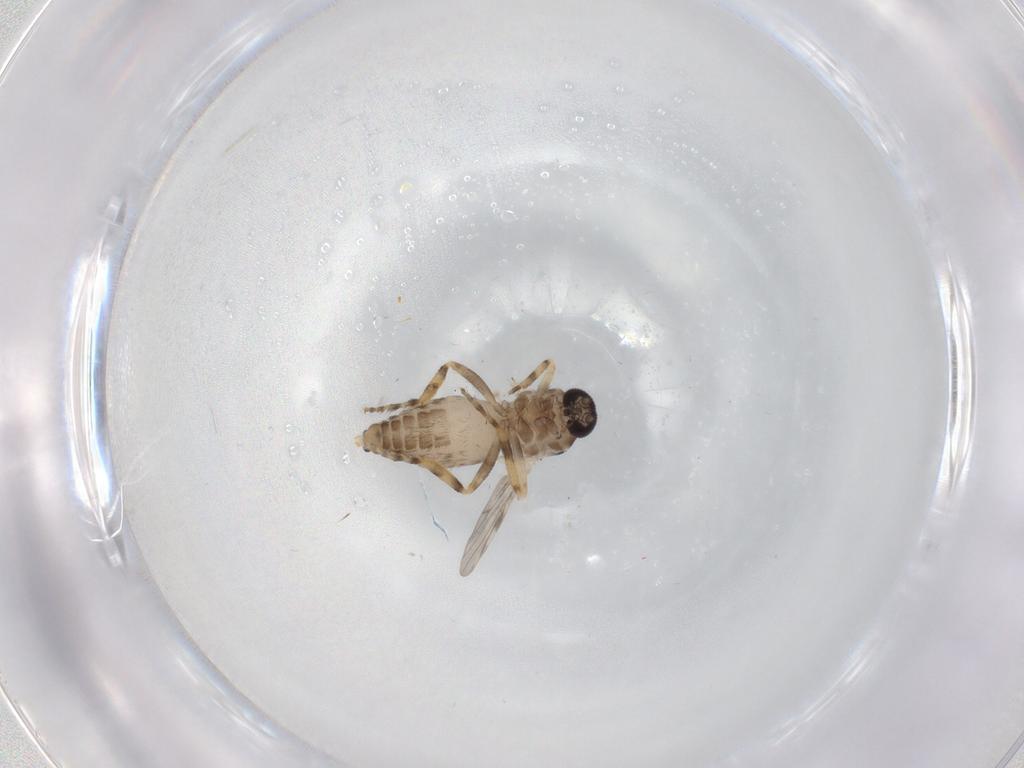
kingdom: Animalia
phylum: Arthropoda
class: Insecta
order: Diptera
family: Ceratopogonidae
